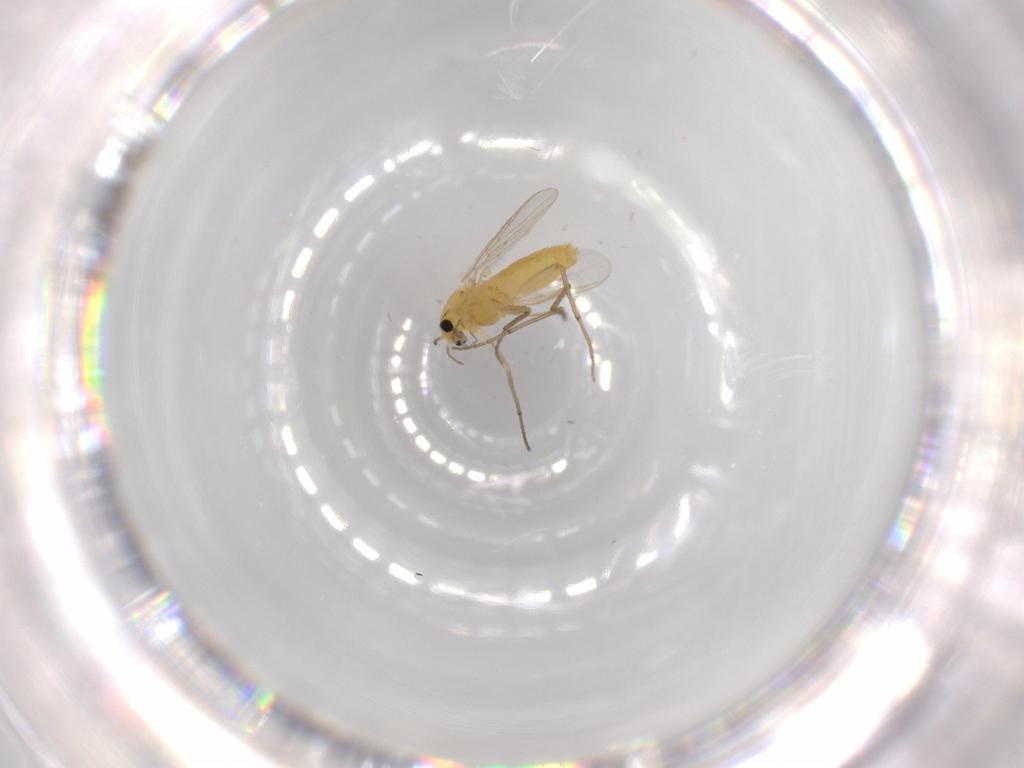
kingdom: Animalia
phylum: Arthropoda
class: Insecta
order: Diptera
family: Chironomidae
